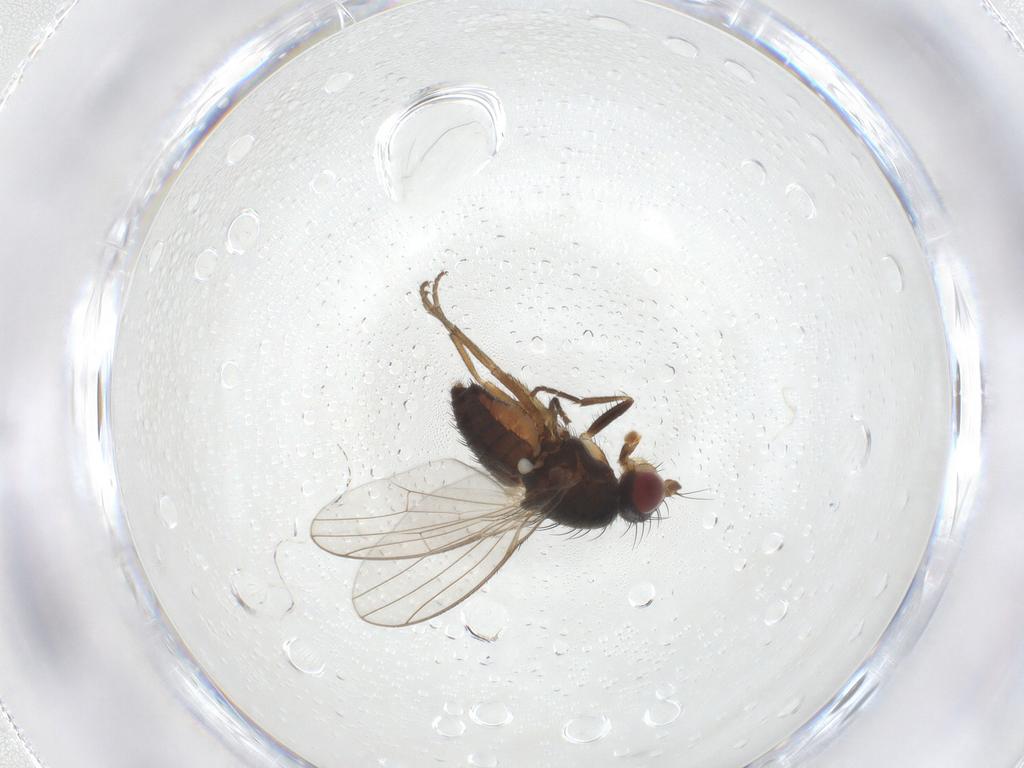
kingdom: Animalia
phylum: Arthropoda
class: Insecta
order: Diptera
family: Heleomyzidae
